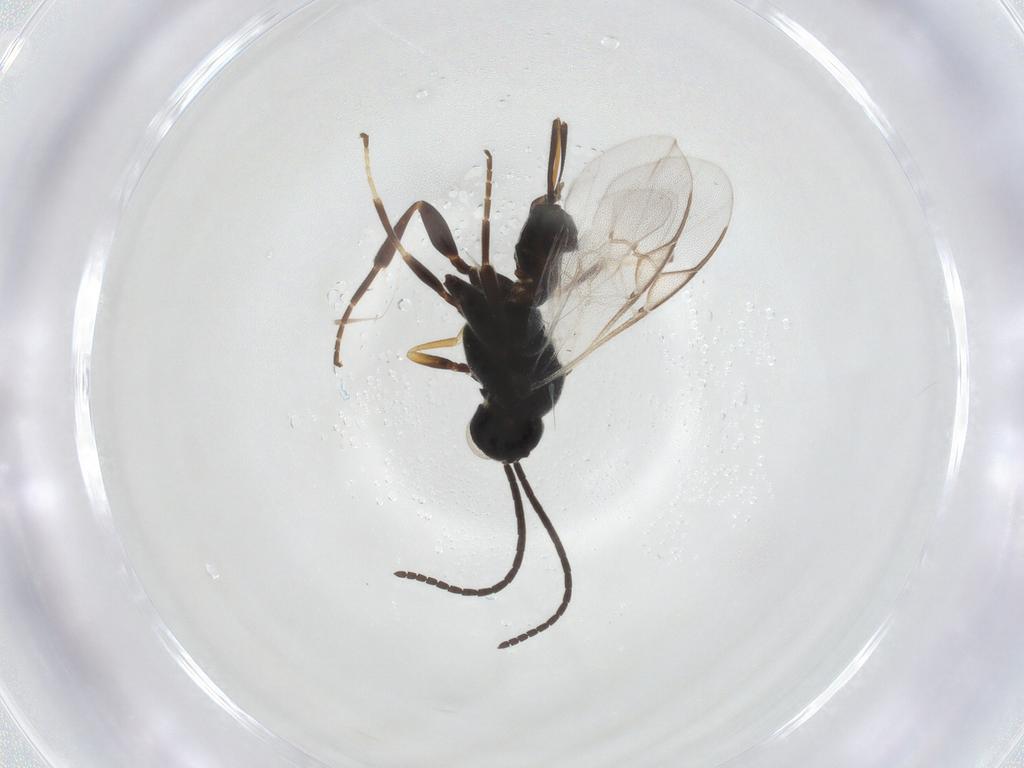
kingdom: Animalia
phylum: Arthropoda
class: Insecta
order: Hymenoptera
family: Braconidae
